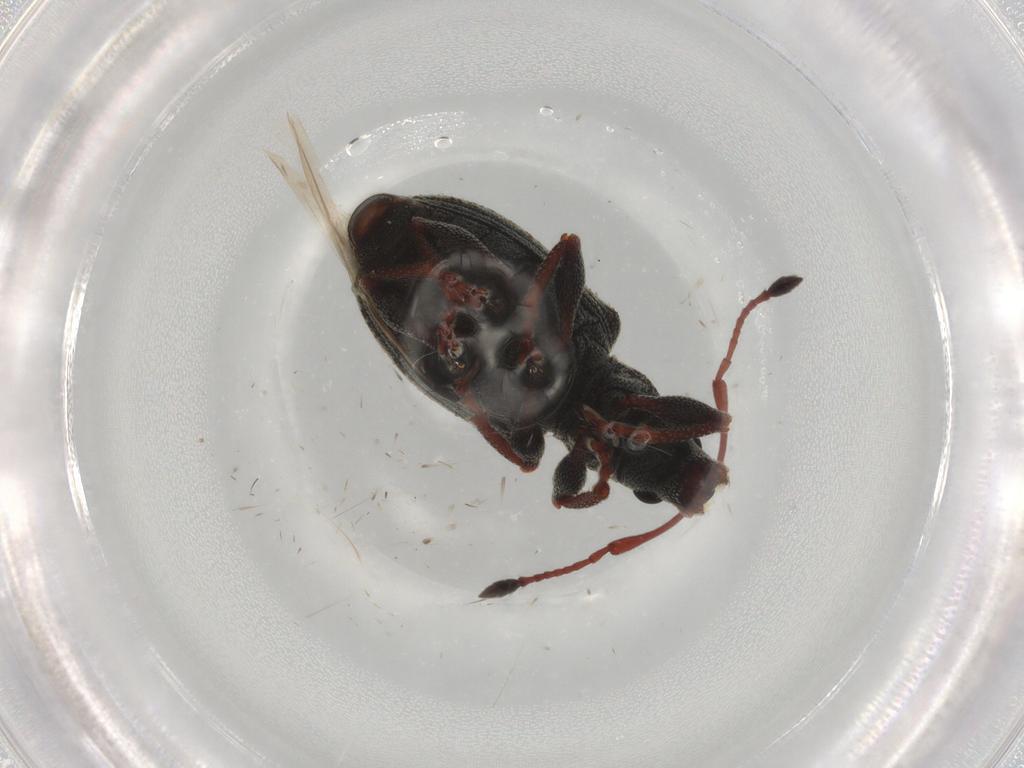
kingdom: Animalia
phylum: Arthropoda
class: Insecta
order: Coleoptera
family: Curculionidae
